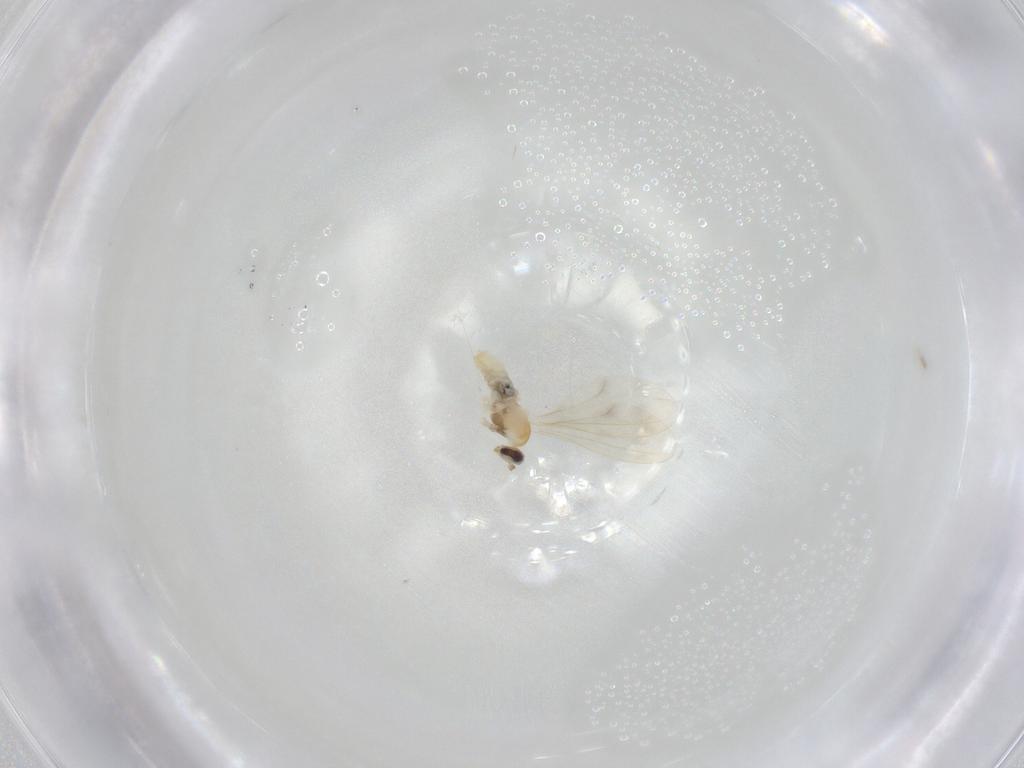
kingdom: Animalia
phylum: Arthropoda
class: Insecta
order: Diptera
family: Cecidomyiidae
